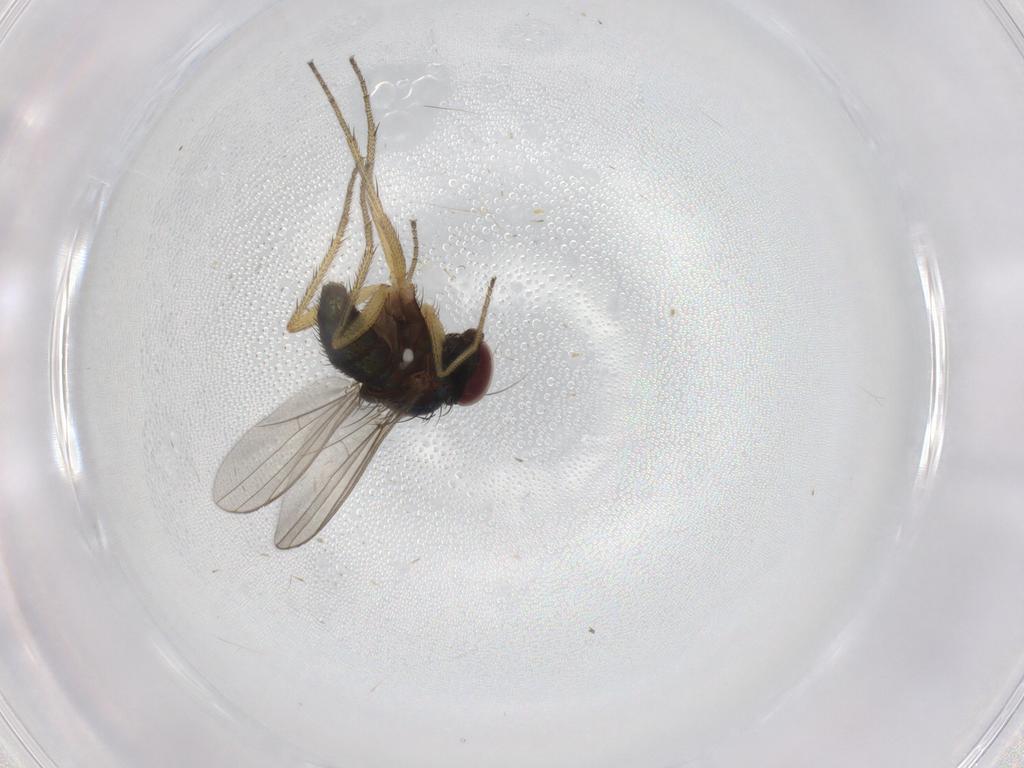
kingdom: Animalia
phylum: Arthropoda
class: Insecta
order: Diptera
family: Dolichopodidae
